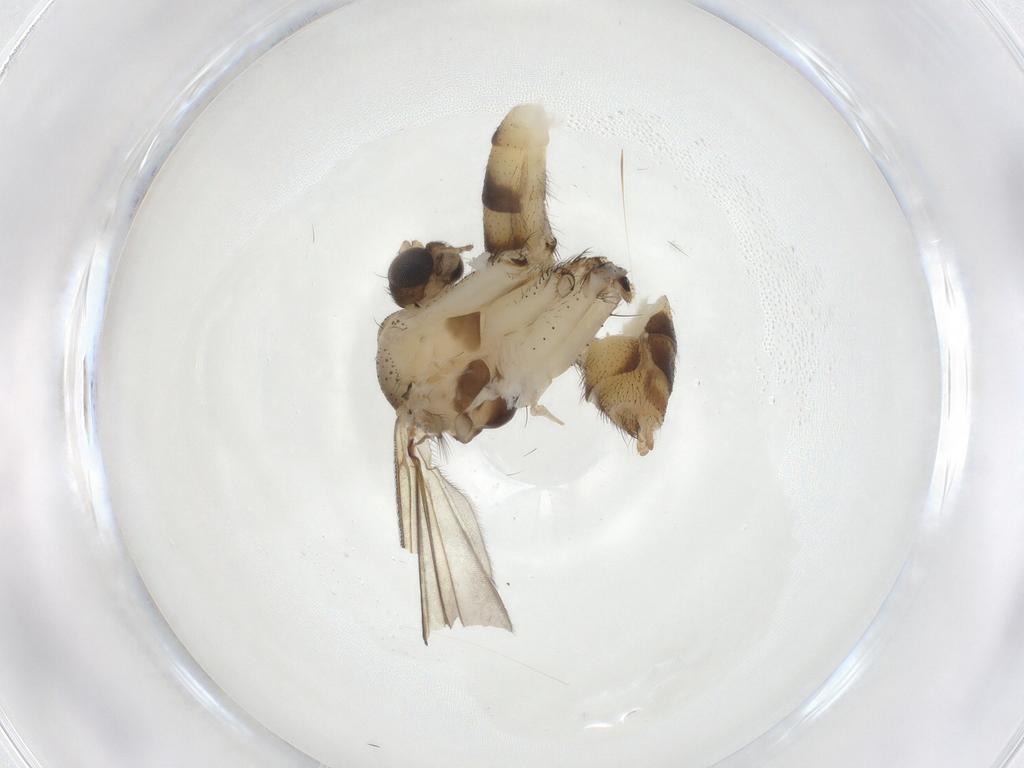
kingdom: Animalia
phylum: Arthropoda
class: Insecta
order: Diptera
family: Mycetophilidae
